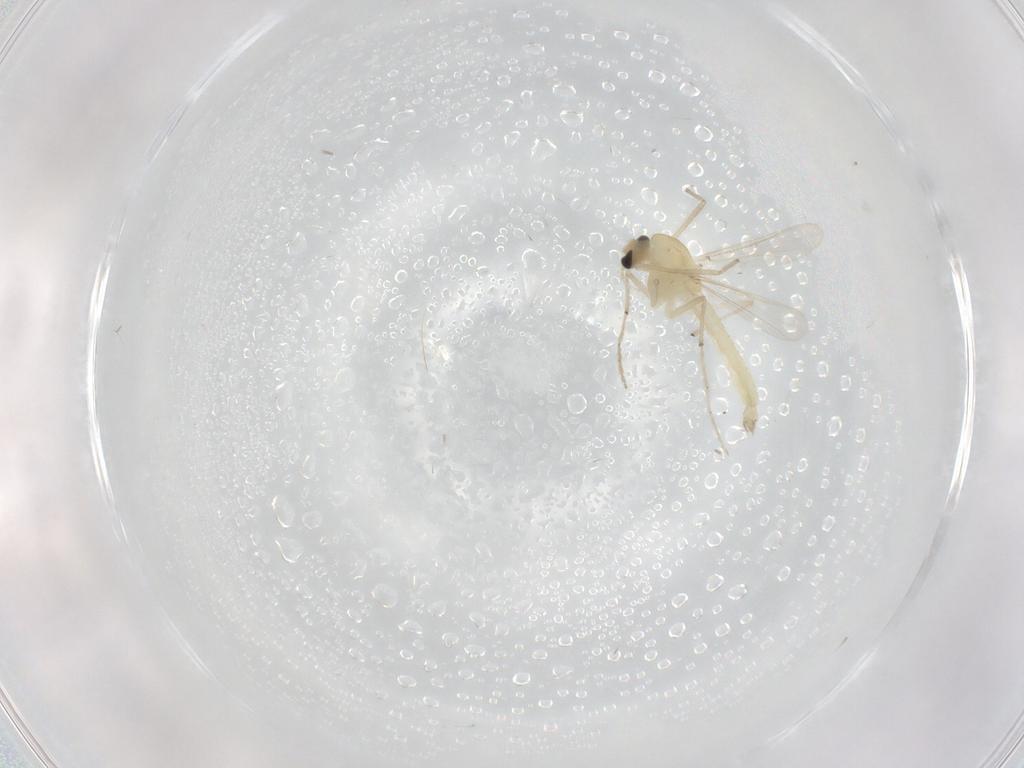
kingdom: Animalia
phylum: Arthropoda
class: Insecta
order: Diptera
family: Chironomidae
